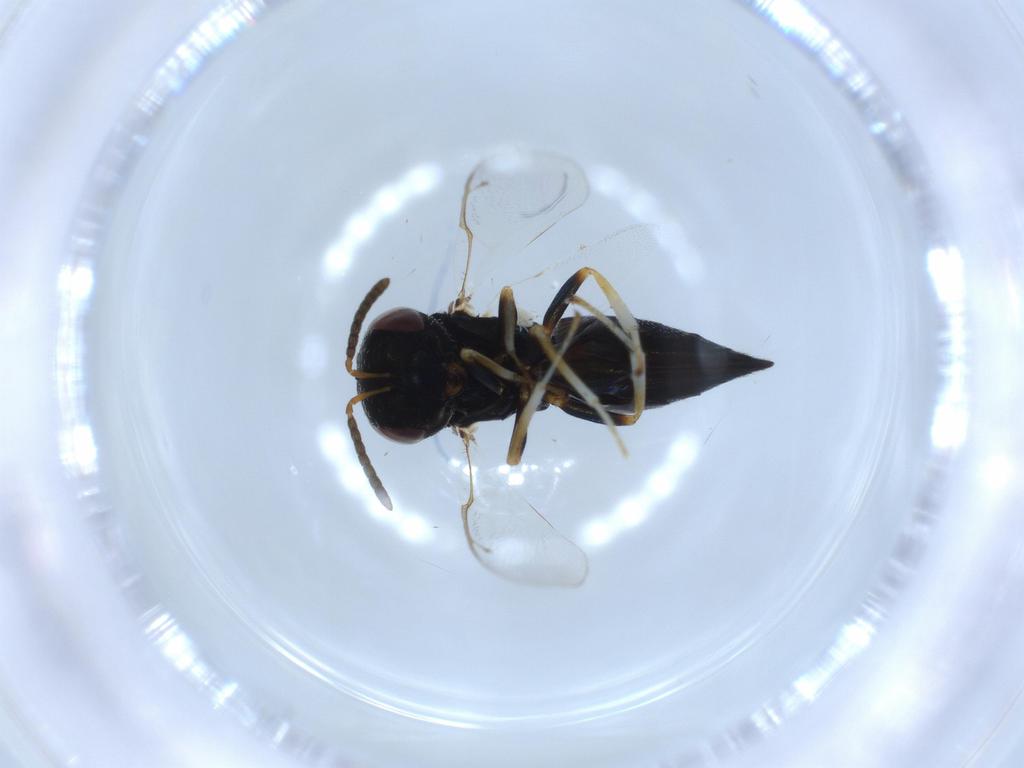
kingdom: Animalia
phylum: Arthropoda
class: Insecta
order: Hymenoptera
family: Pteromalidae
